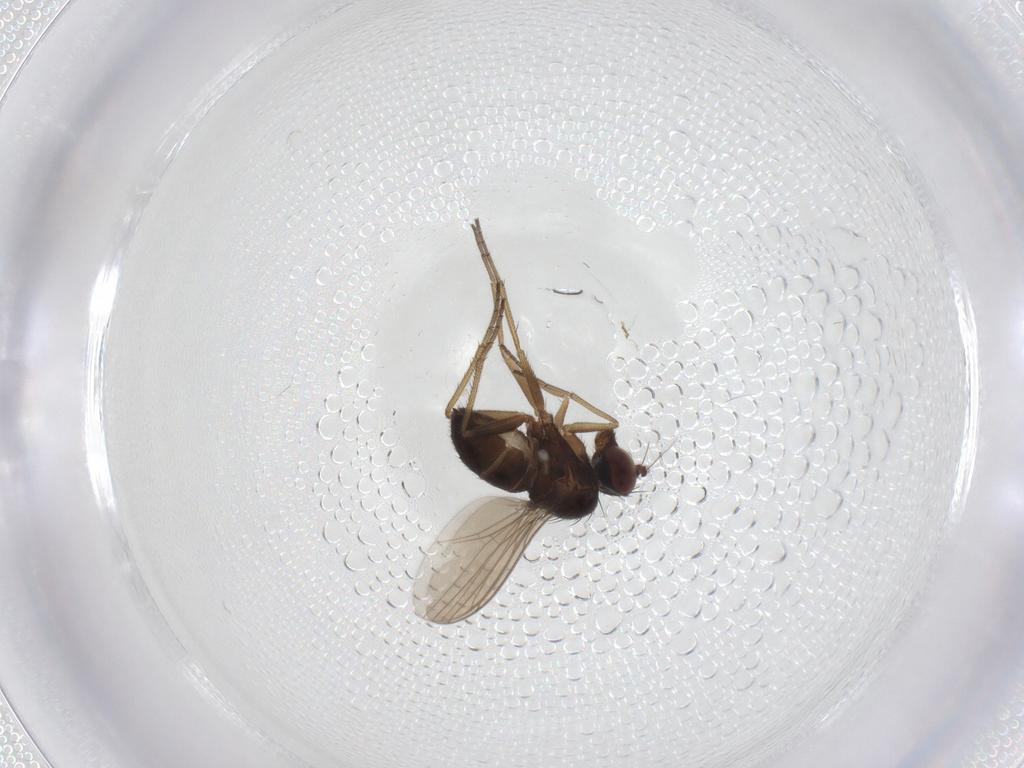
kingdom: Animalia
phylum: Arthropoda
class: Insecta
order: Diptera
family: Dolichopodidae
